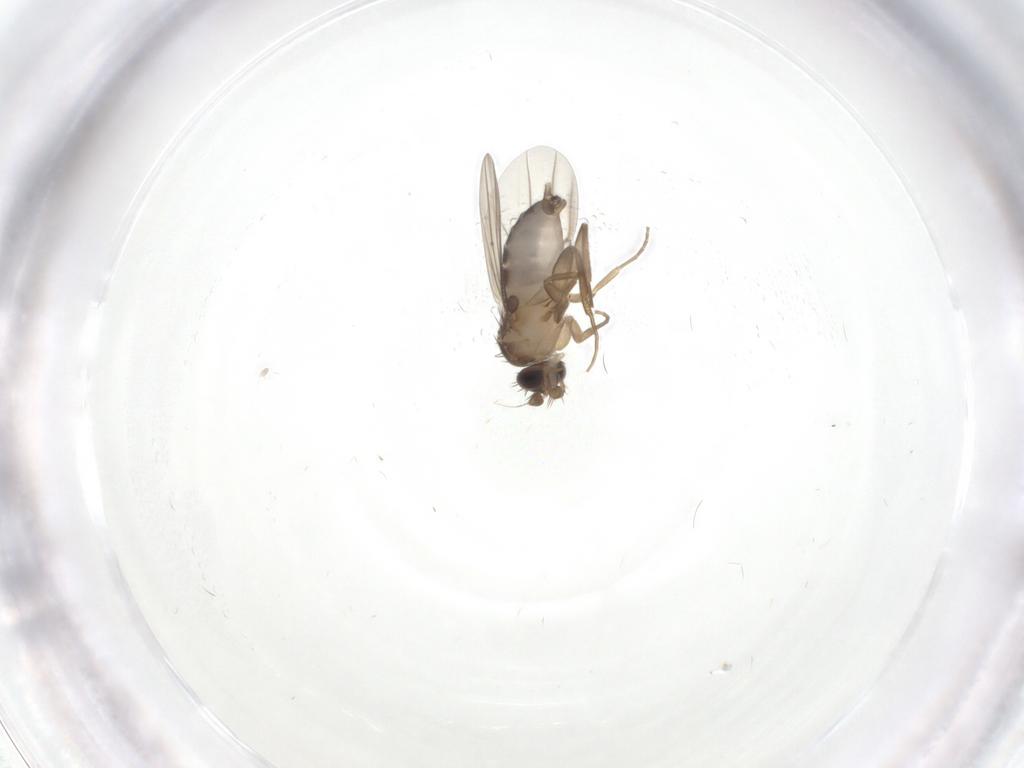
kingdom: Animalia
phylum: Arthropoda
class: Insecta
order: Diptera
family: Psychodidae
